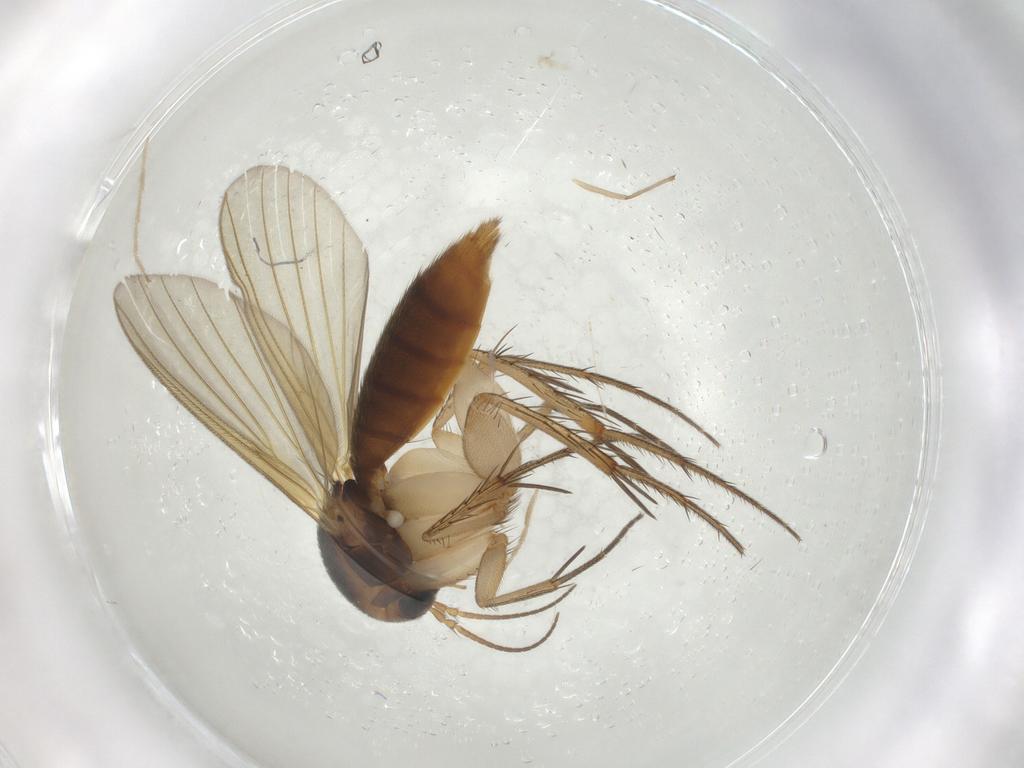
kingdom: Animalia
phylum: Arthropoda
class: Insecta
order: Diptera
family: Mycetophilidae
